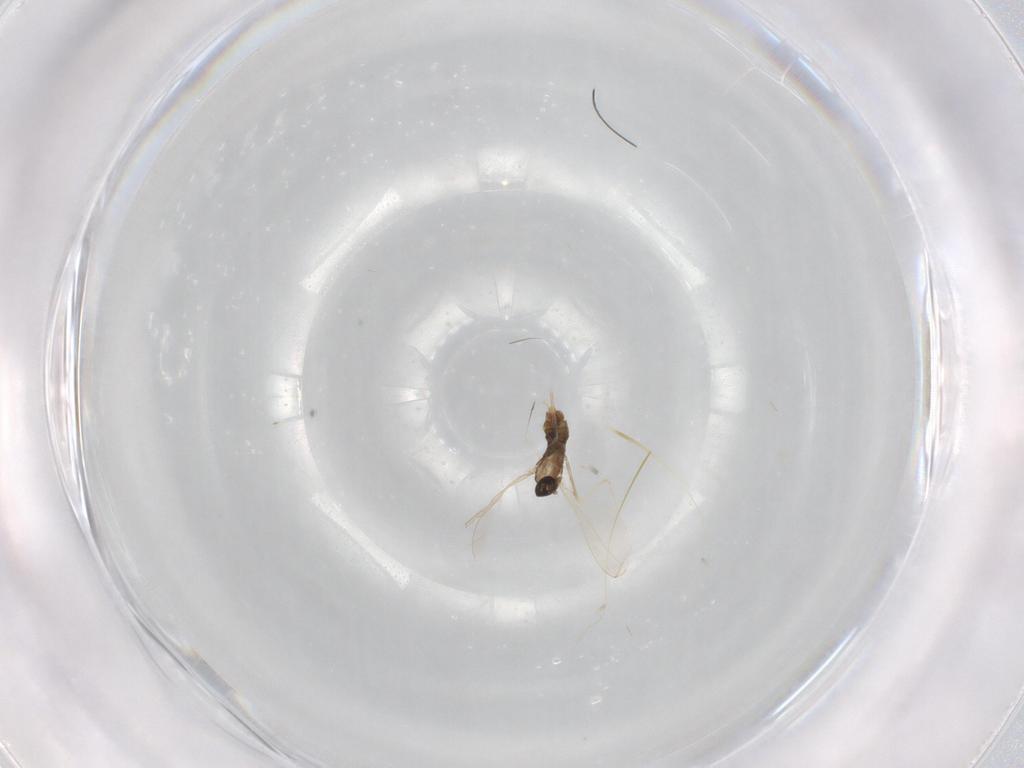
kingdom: Animalia
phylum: Arthropoda
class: Insecta
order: Diptera
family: Cecidomyiidae
